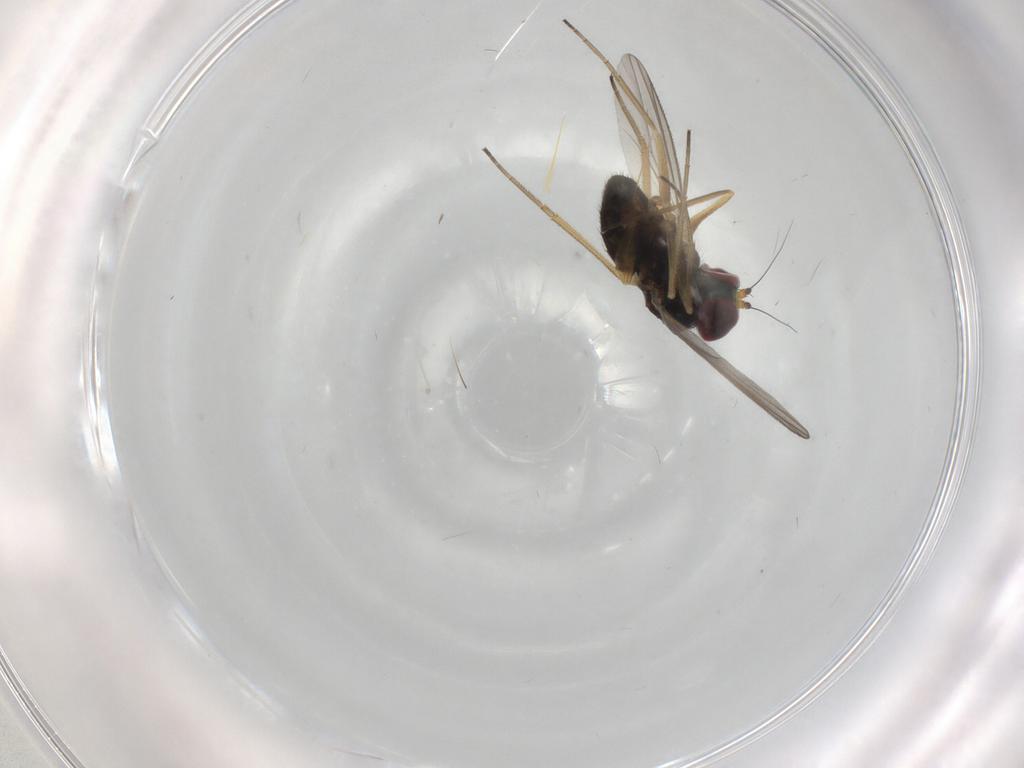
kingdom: Animalia
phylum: Arthropoda
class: Insecta
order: Diptera
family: Dolichopodidae
